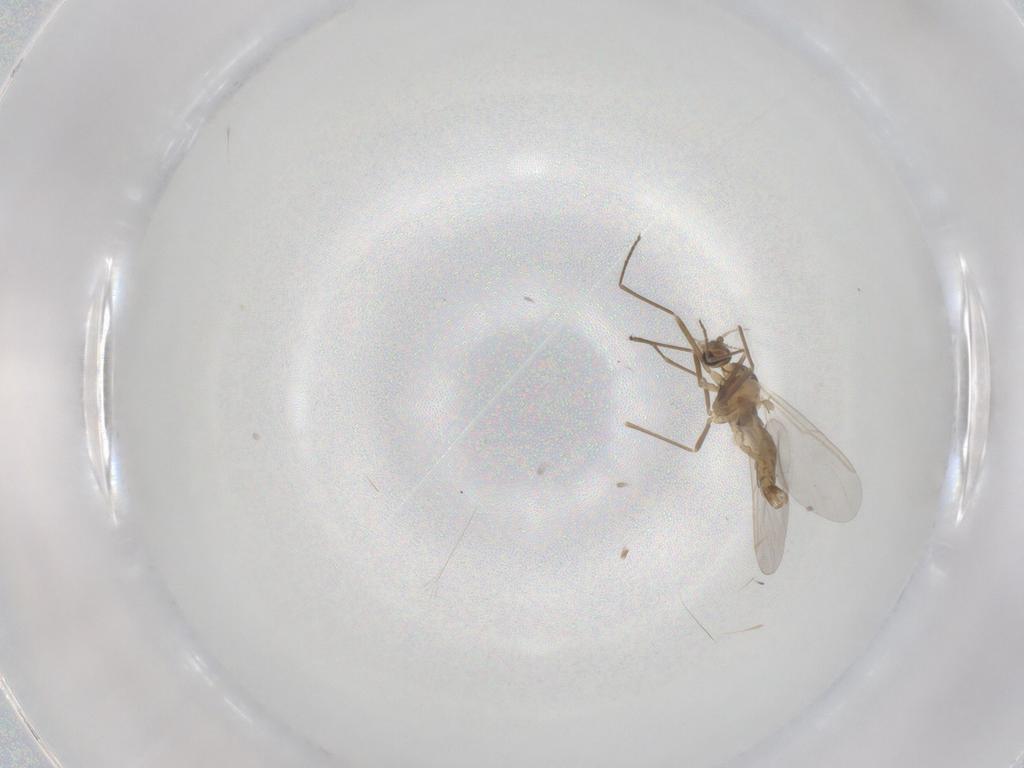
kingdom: Animalia
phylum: Arthropoda
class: Insecta
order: Diptera
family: Cecidomyiidae
